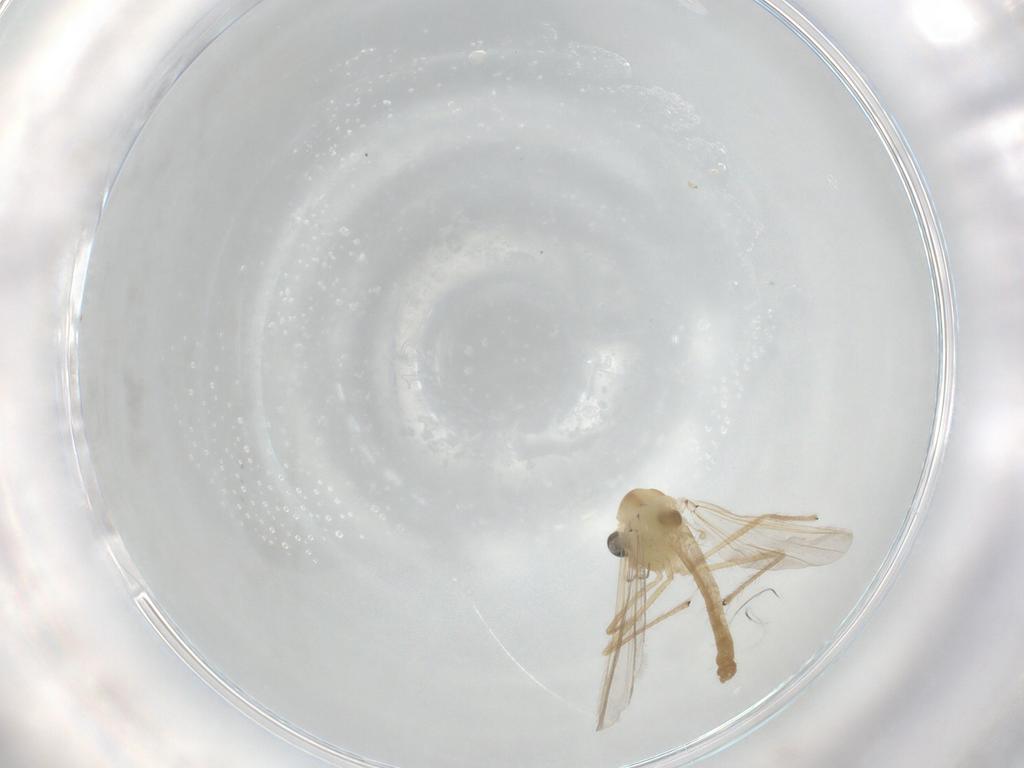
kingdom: Animalia
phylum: Arthropoda
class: Insecta
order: Diptera
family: Chironomidae
